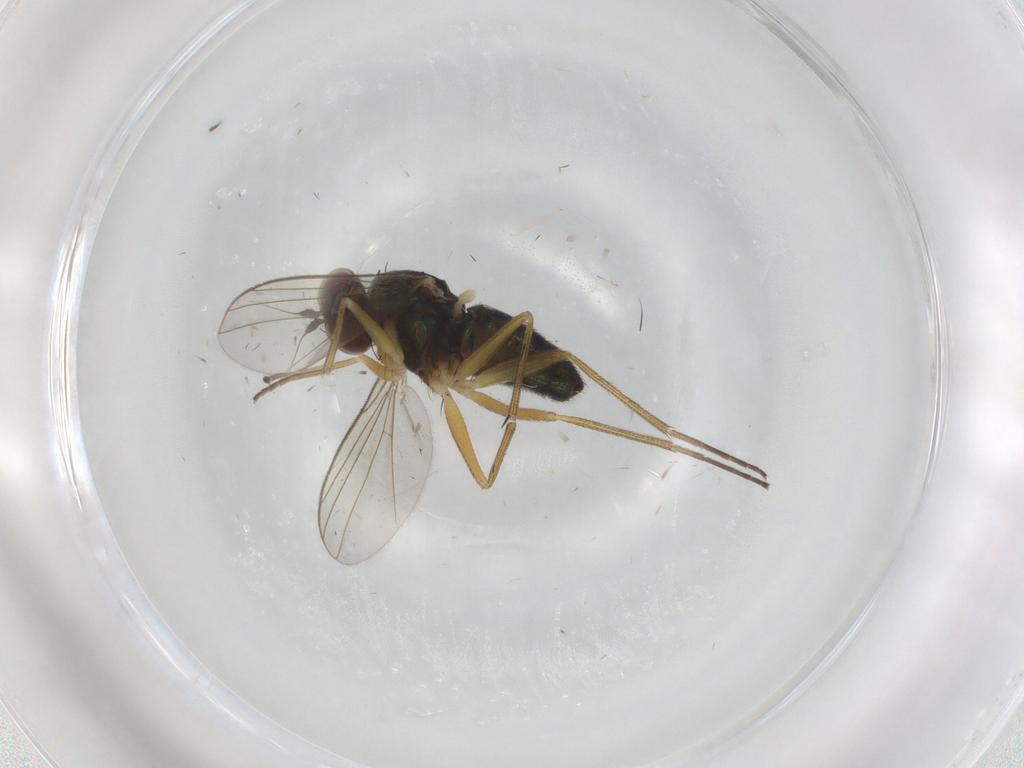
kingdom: Animalia
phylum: Arthropoda
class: Insecta
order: Diptera
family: Dolichopodidae
